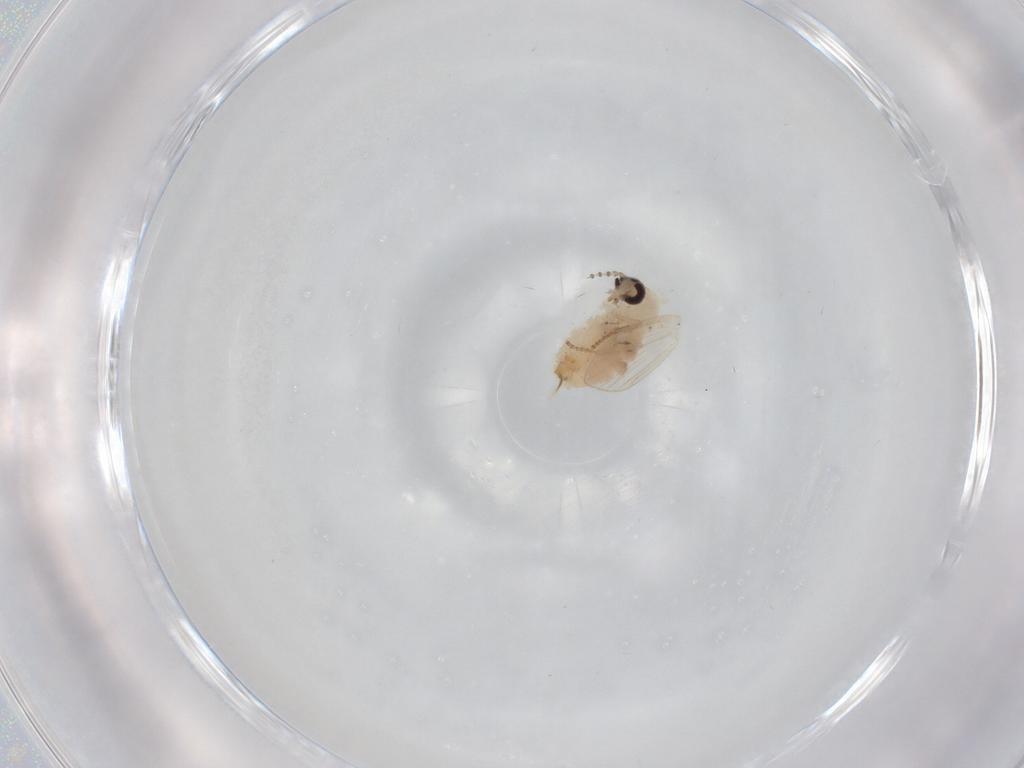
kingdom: Animalia
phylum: Arthropoda
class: Insecta
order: Diptera
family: Psychodidae
